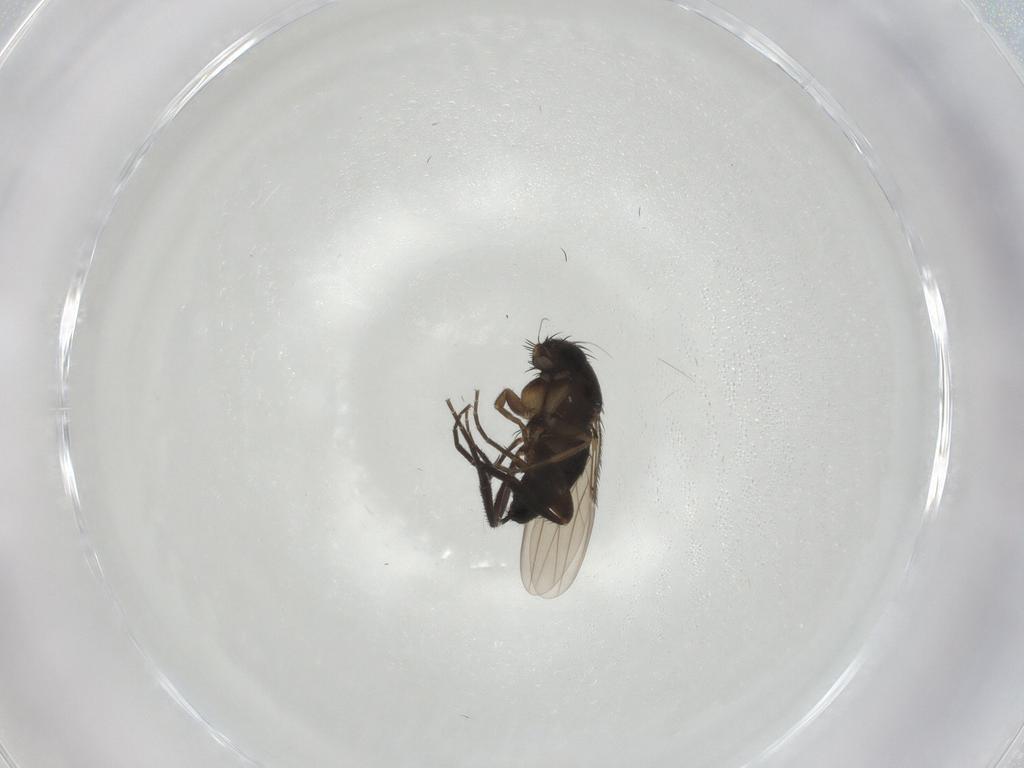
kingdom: Animalia
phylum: Arthropoda
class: Insecta
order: Diptera
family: Phoridae
